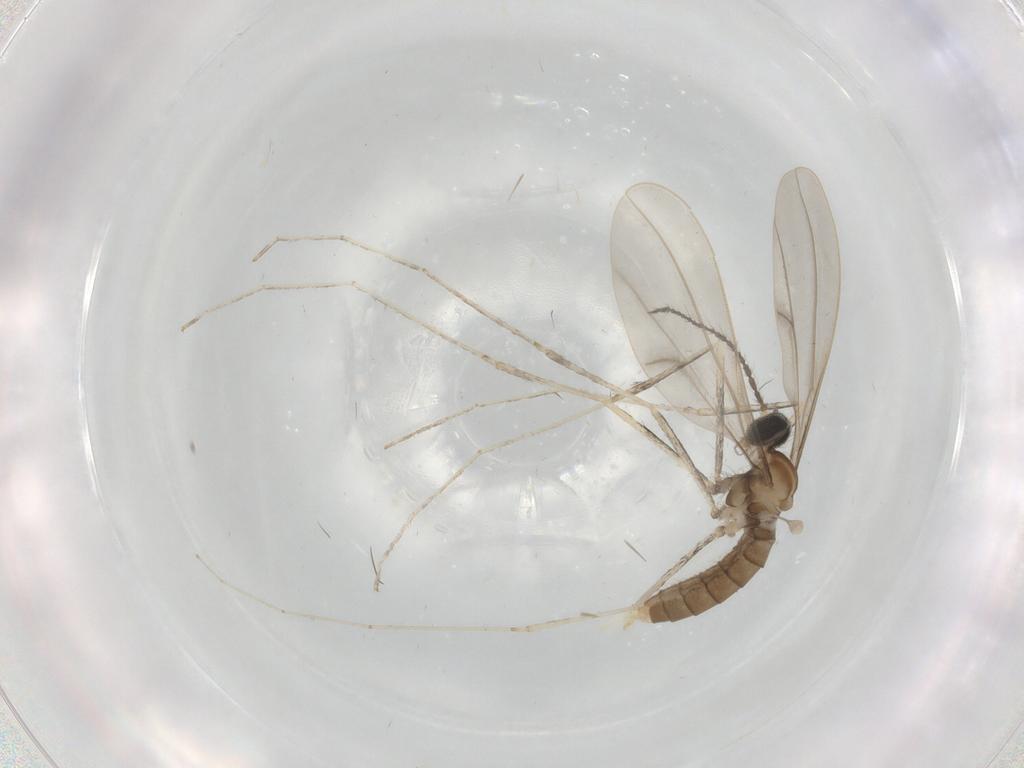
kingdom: Animalia
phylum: Arthropoda
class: Insecta
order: Diptera
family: Cecidomyiidae
